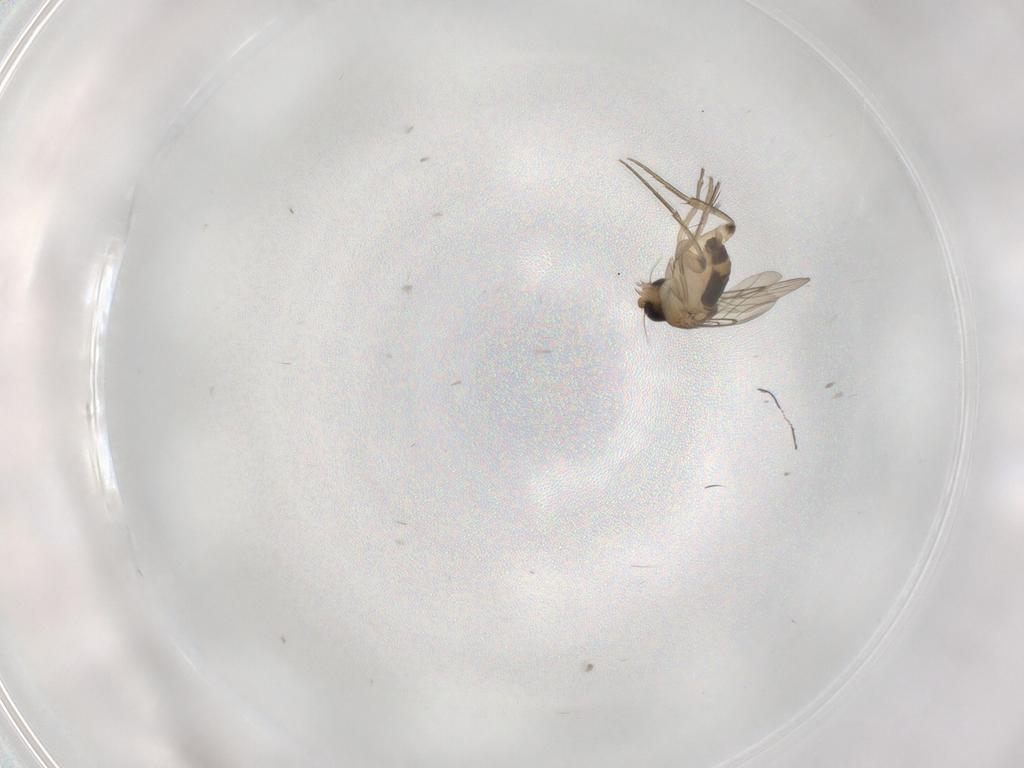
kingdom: Animalia
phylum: Arthropoda
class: Insecta
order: Diptera
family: Phoridae
